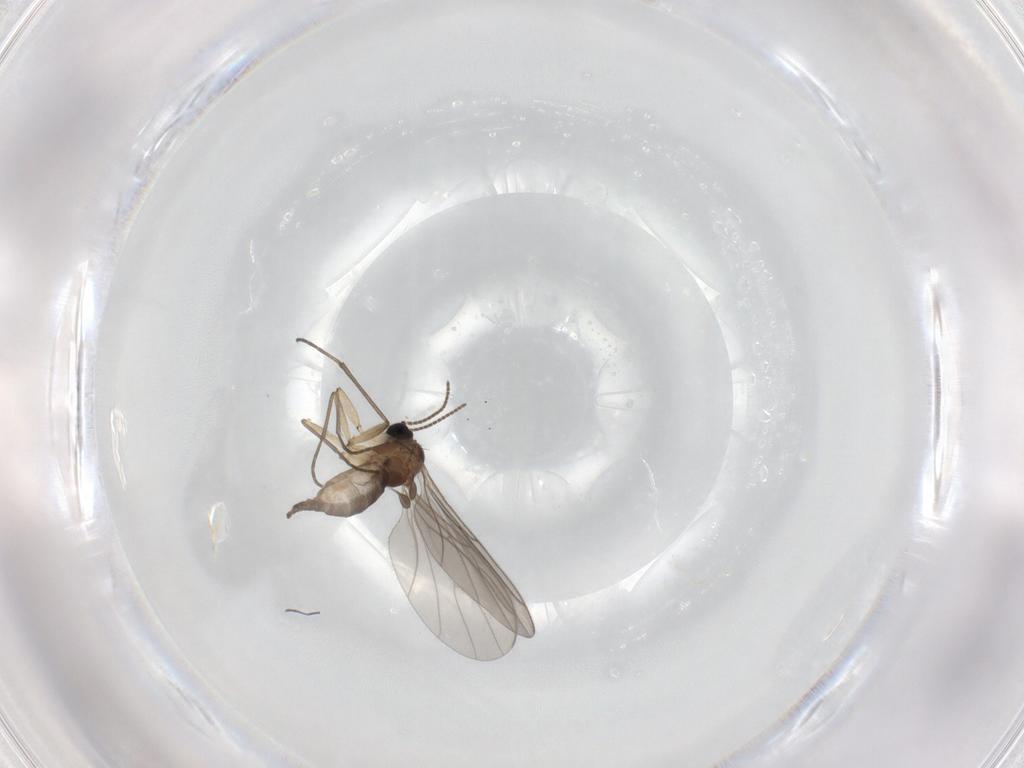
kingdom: Animalia
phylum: Arthropoda
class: Insecta
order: Diptera
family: Sciaridae
